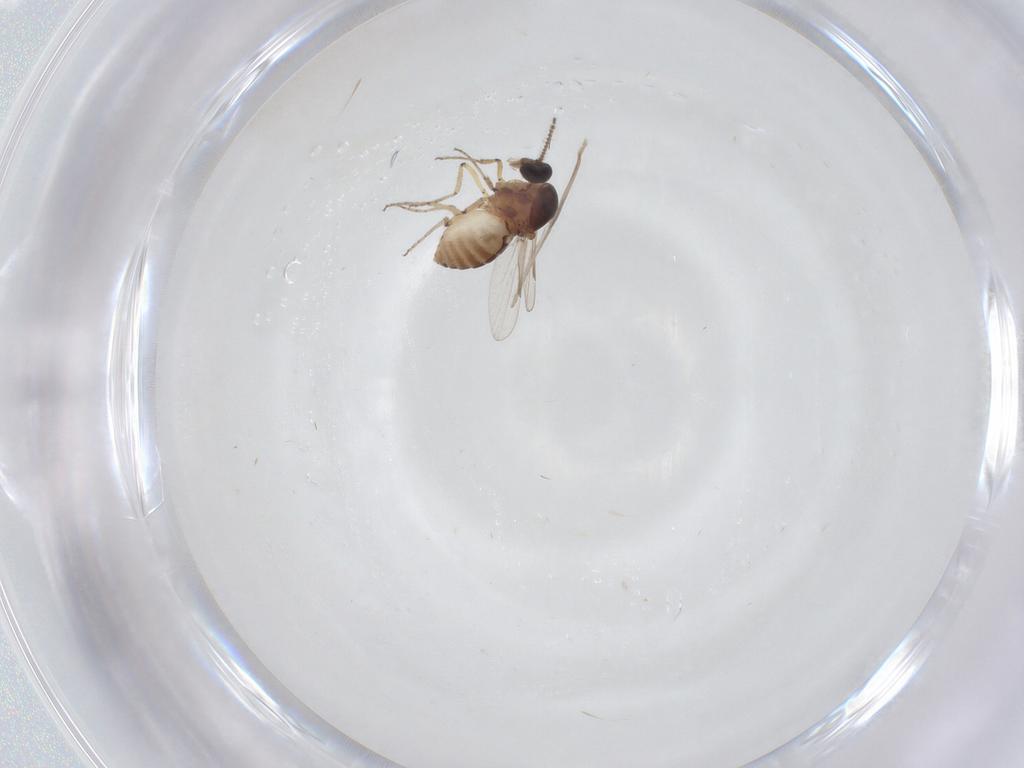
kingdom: Animalia
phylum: Arthropoda
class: Insecta
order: Diptera
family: Ceratopogonidae
